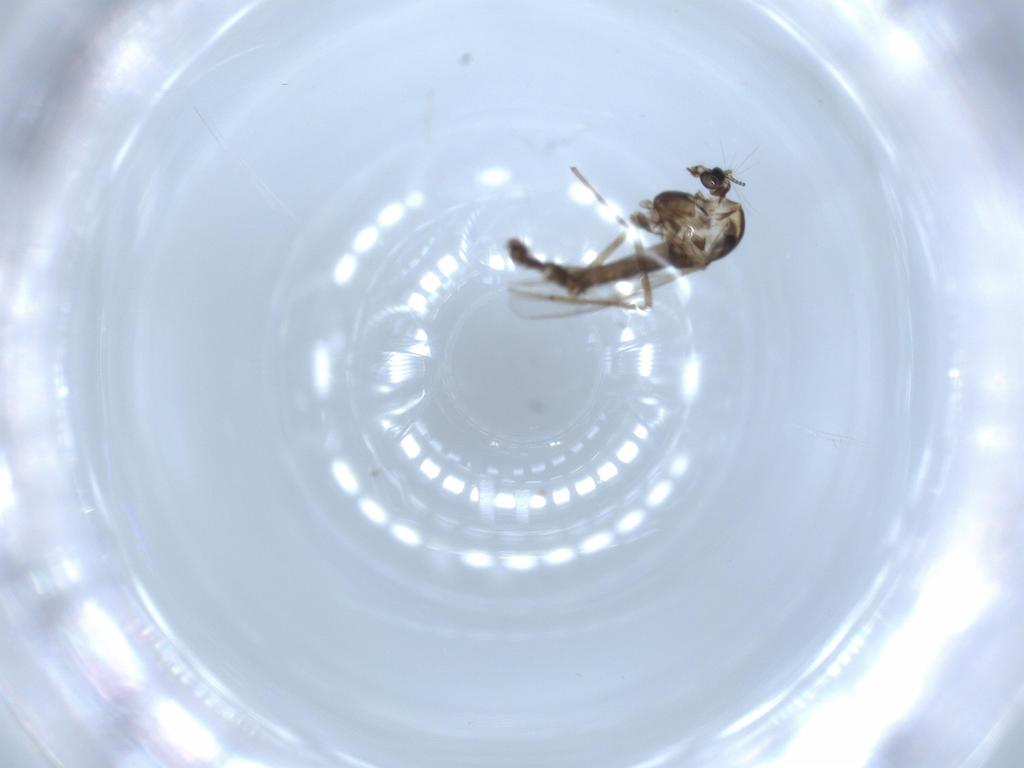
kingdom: Animalia
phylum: Arthropoda
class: Insecta
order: Diptera
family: Chironomidae
